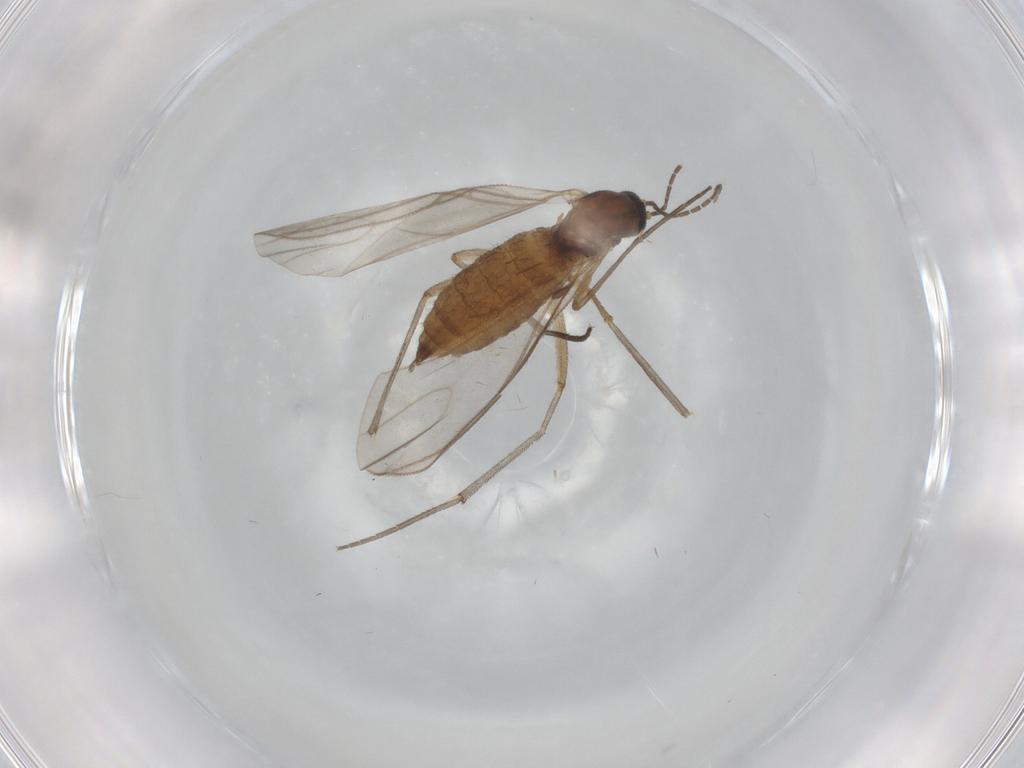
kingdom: Animalia
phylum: Arthropoda
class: Insecta
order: Diptera
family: Sciaridae
